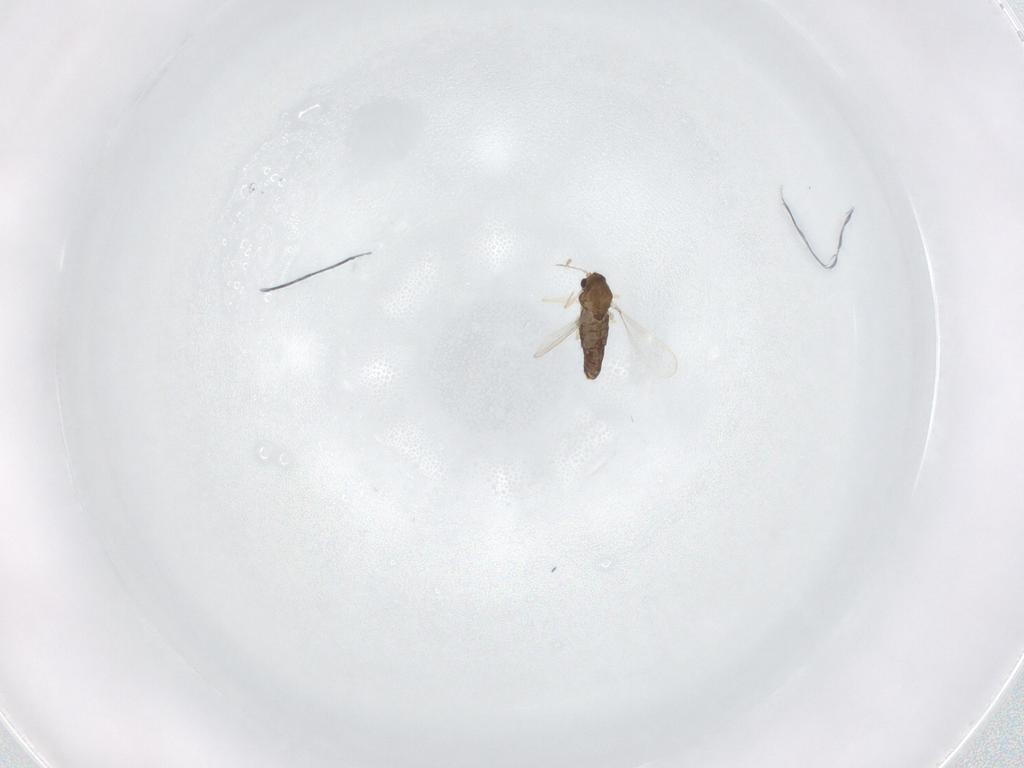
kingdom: Animalia
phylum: Arthropoda
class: Insecta
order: Diptera
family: Chironomidae
